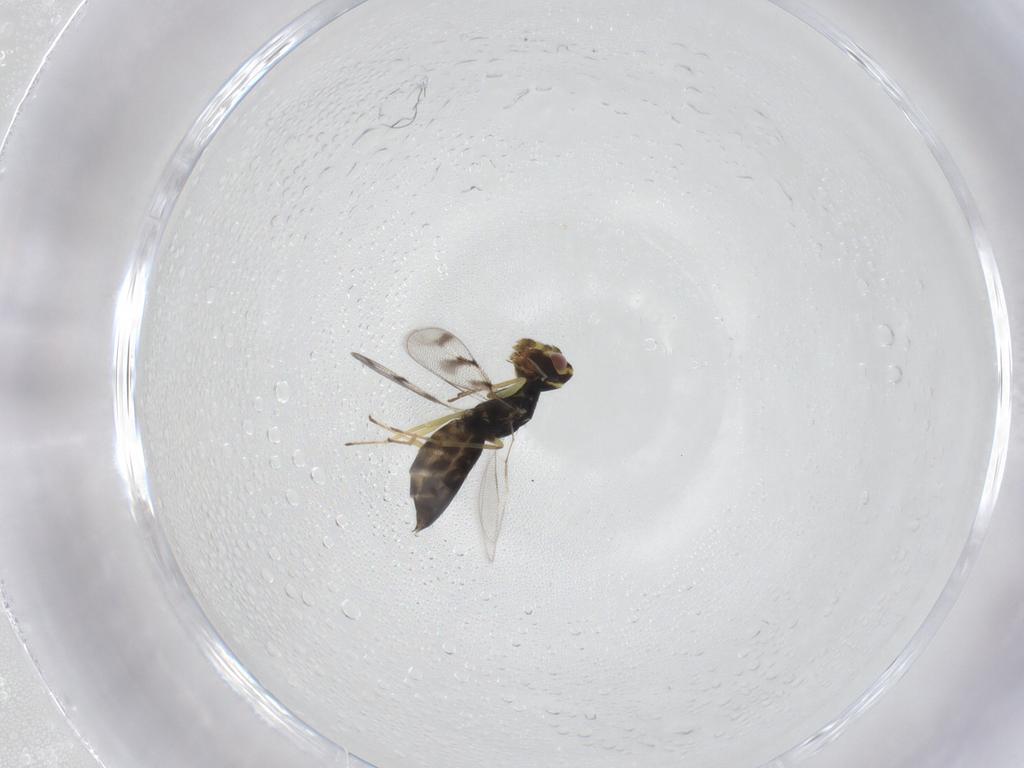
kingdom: Animalia
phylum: Arthropoda
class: Insecta
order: Hymenoptera
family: Eulophidae
